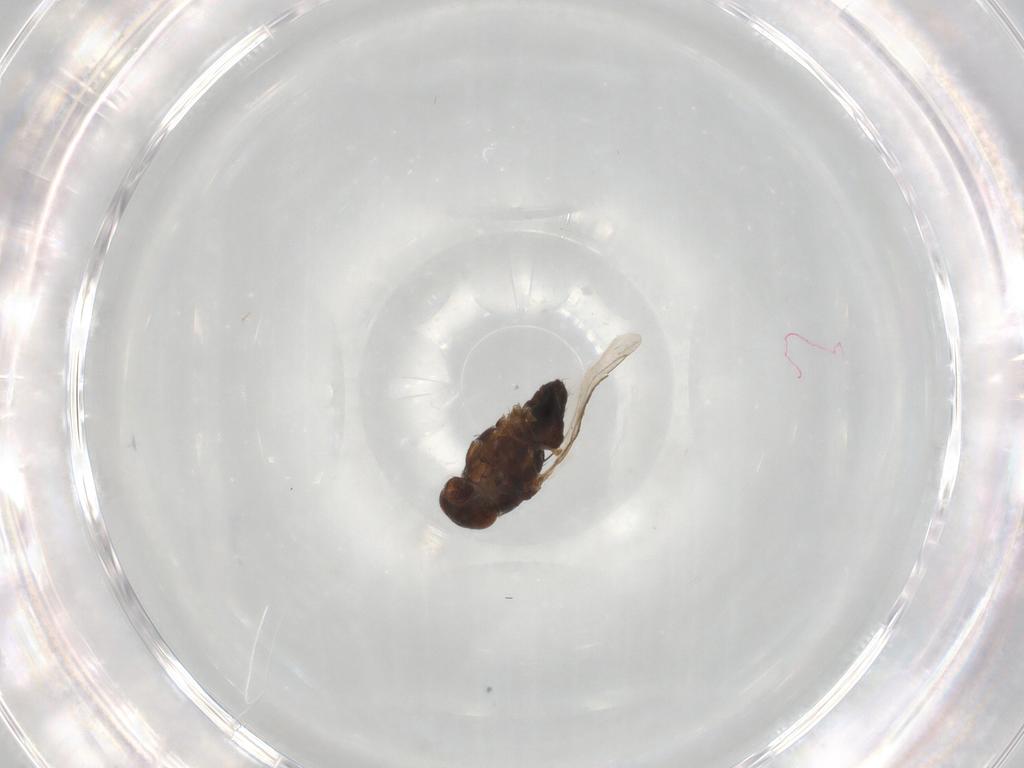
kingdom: Animalia
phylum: Arthropoda
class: Insecta
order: Diptera
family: Sphaeroceridae
